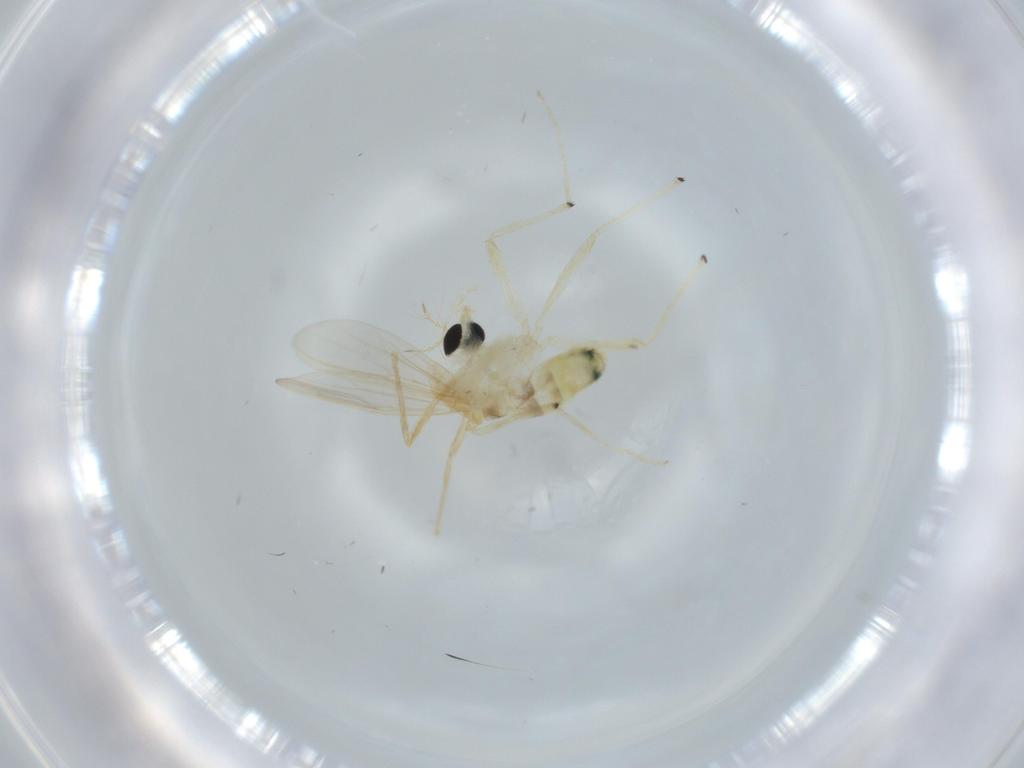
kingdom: Animalia
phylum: Arthropoda
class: Insecta
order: Diptera
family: Chironomidae
